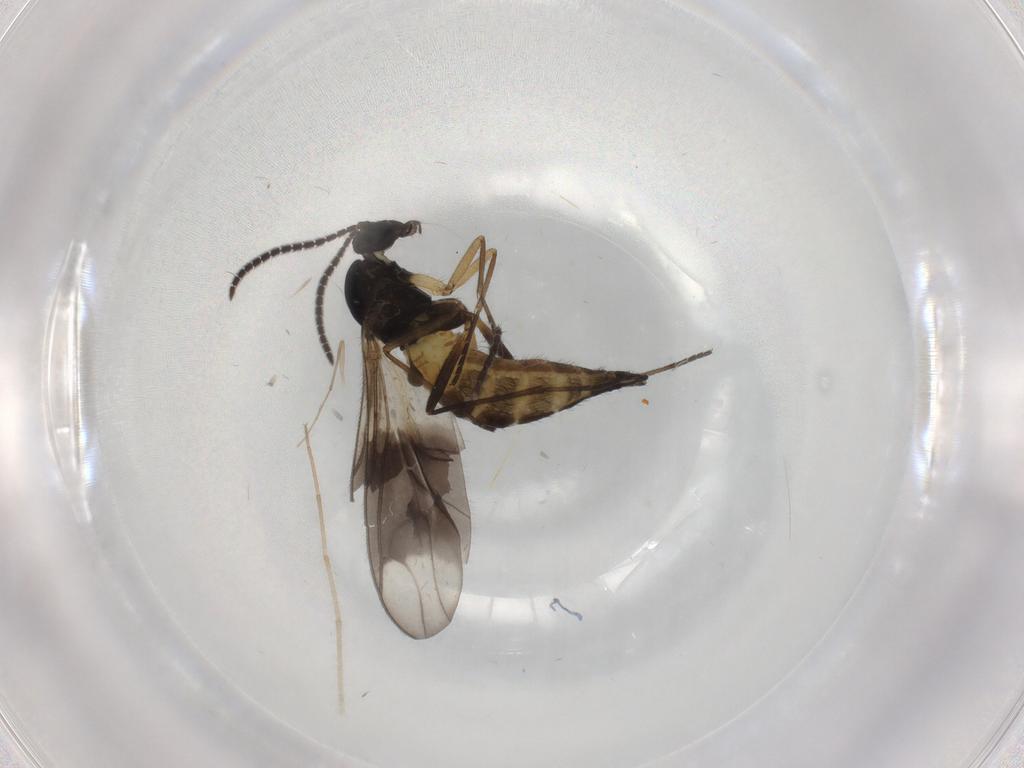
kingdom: Animalia
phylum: Arthropoda
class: Insecta
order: Diptera
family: Sciaridae
